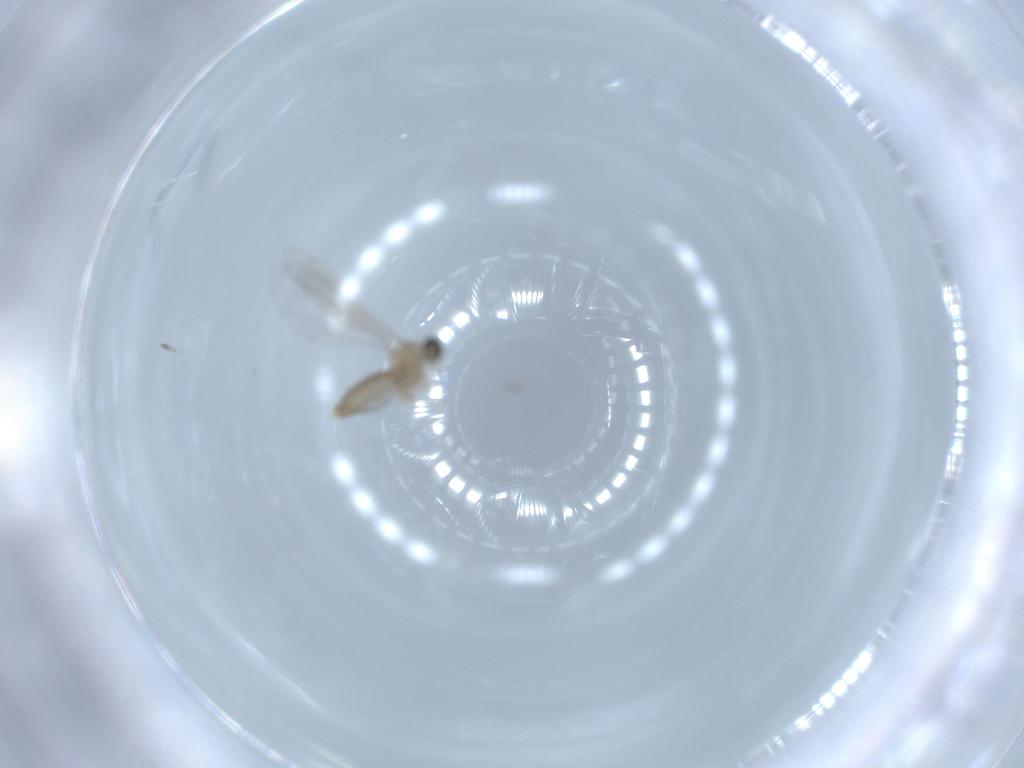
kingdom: Animalia
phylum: Arthropoda
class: Insecta
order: Diptera
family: Cecidomyiidae
